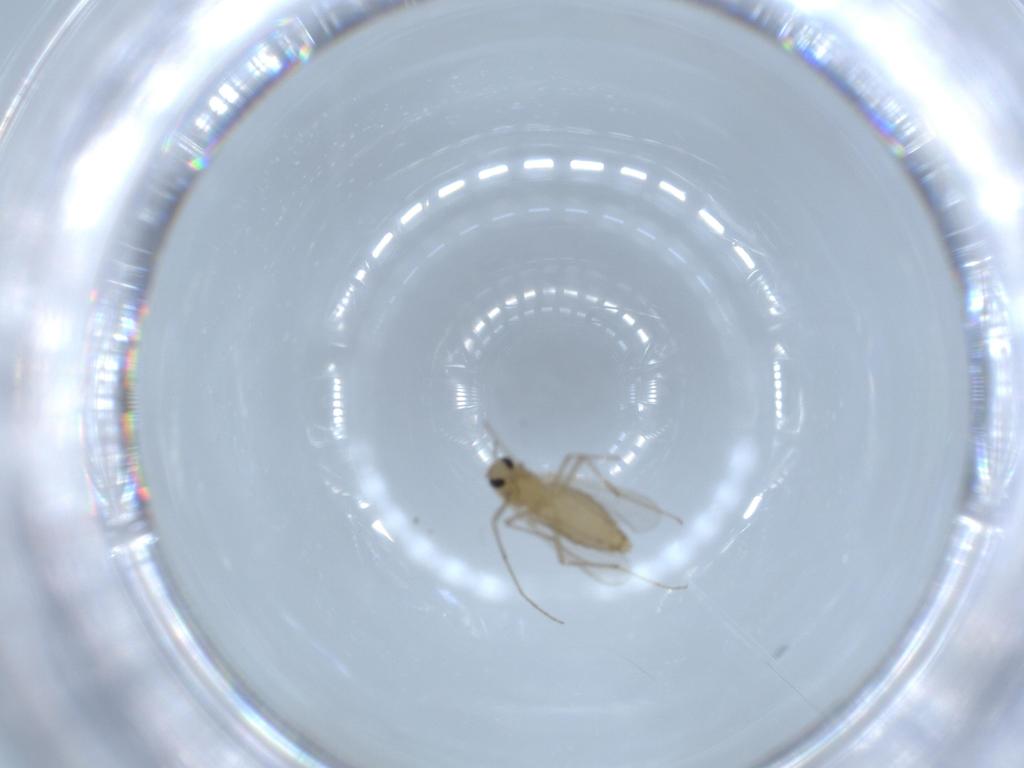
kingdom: Animalia
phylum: Arthropoda
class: Insecta
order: Diptera
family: Chironomidae
